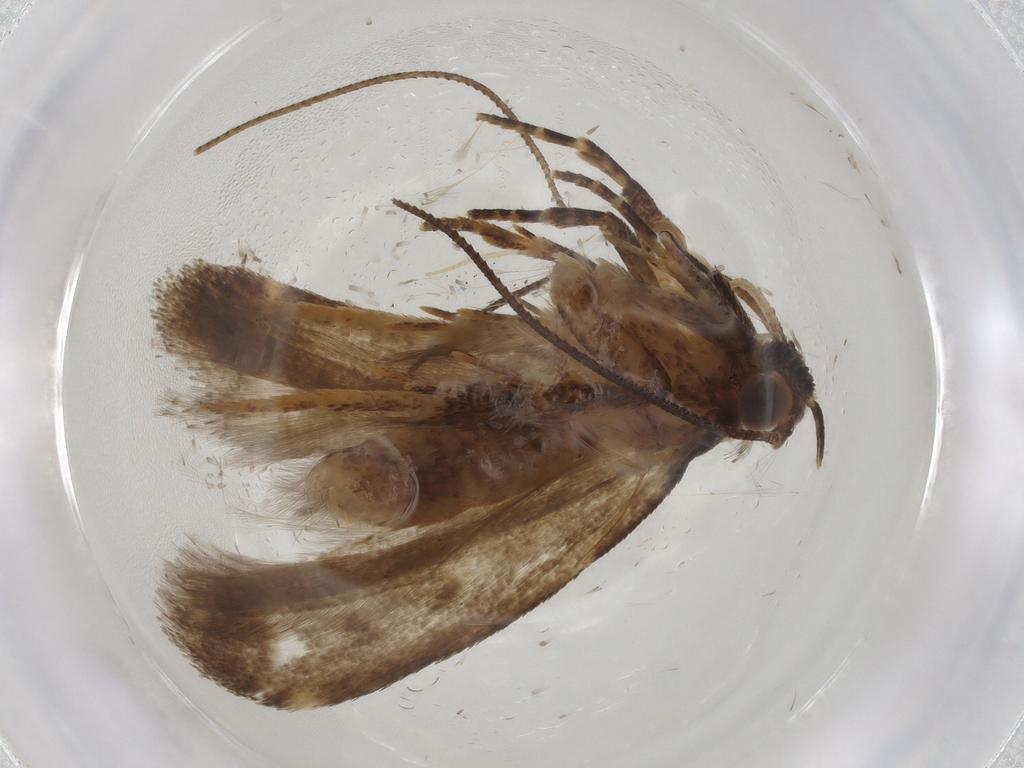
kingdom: Animalia
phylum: Arthropoda
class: Insecta
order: Lepidoptera
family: Gelechiidae
